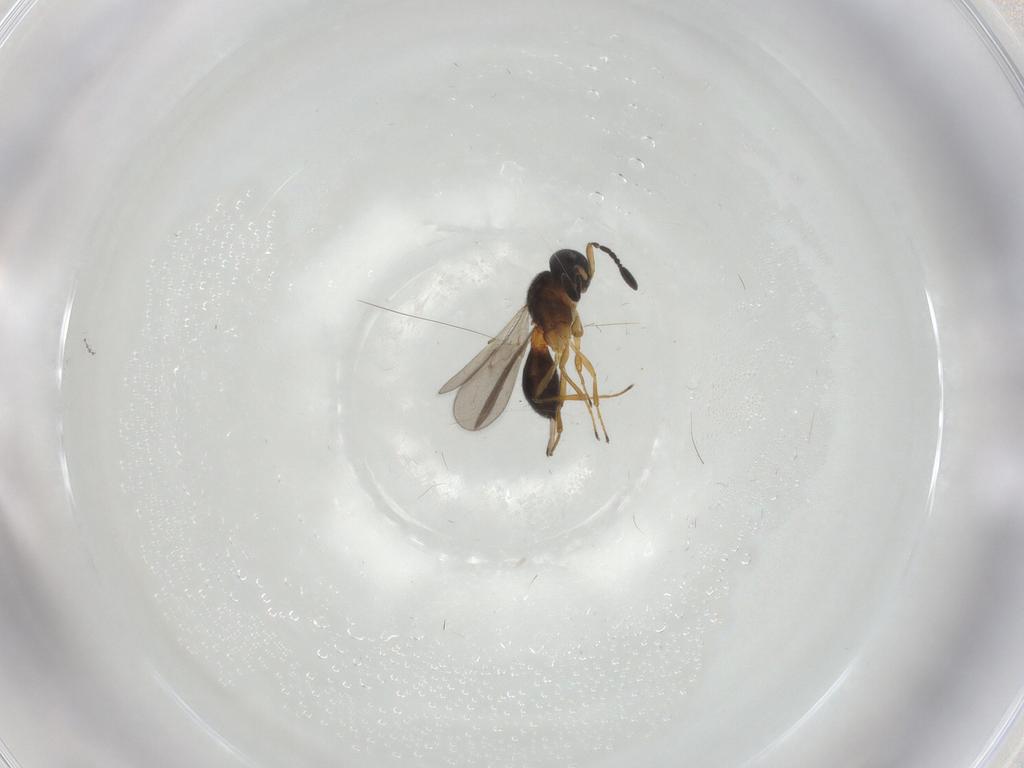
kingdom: Animalia
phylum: Arthropoda
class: Insecta
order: Hymenoptera
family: Scelionidae
